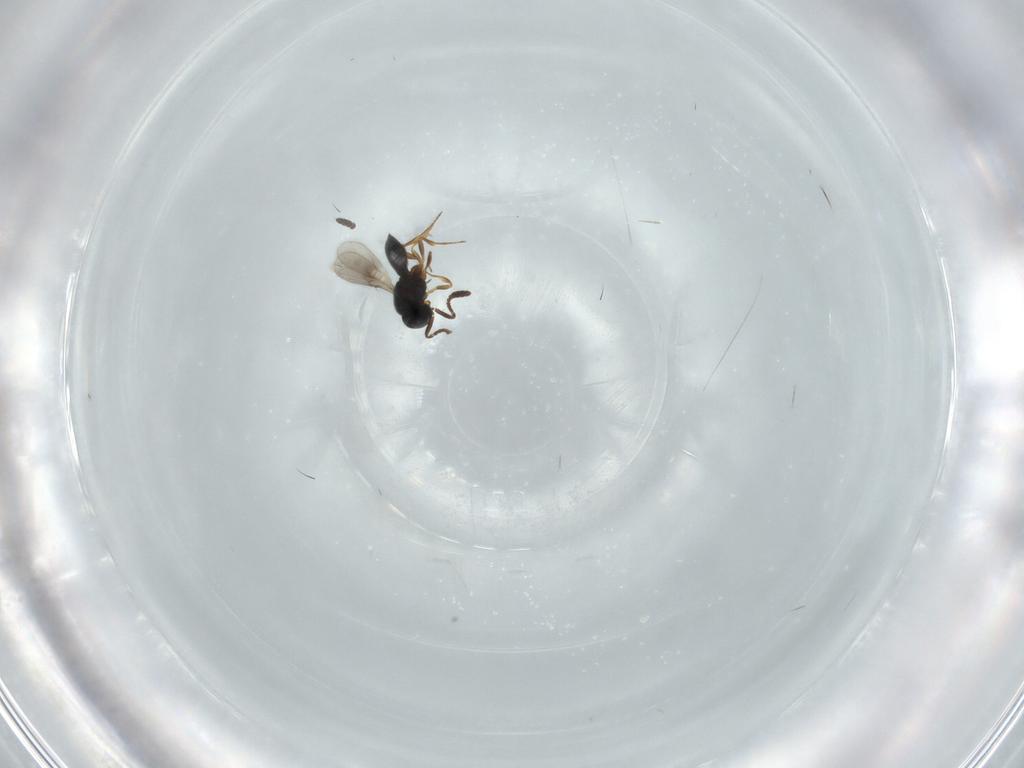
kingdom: Animalia
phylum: Arthropoda
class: Insecta
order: Hymenoptera
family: Scelionidae
